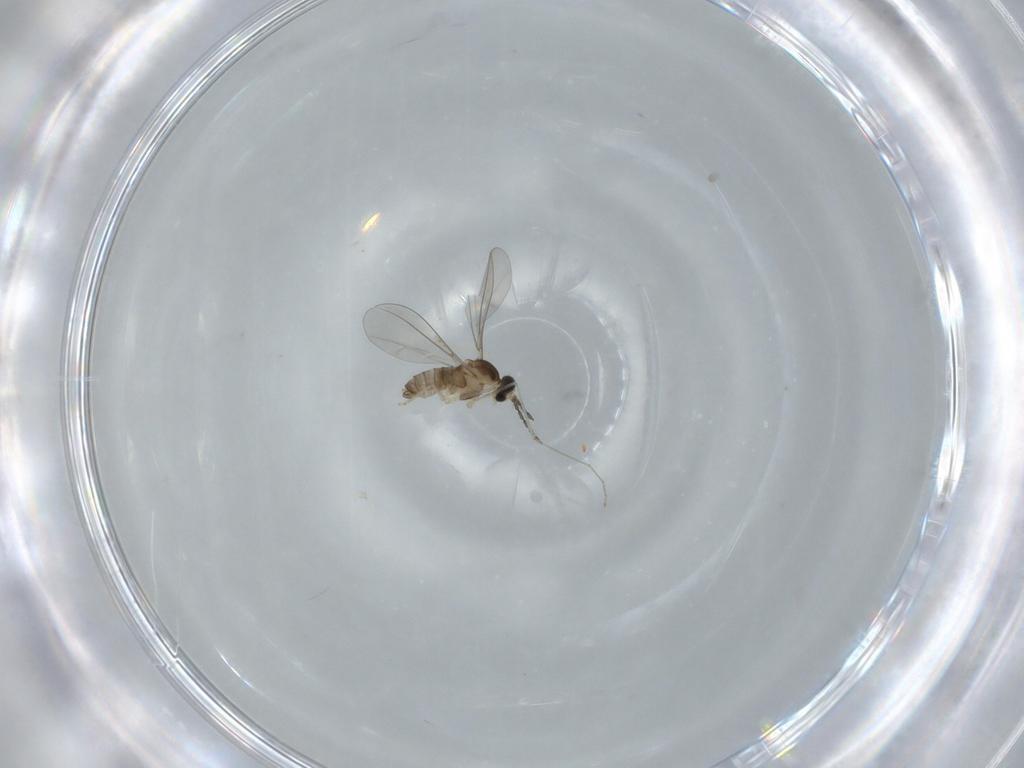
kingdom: Animalia
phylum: Arthropoda
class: Insecta
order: Diptera
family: Cecidomyiidae
